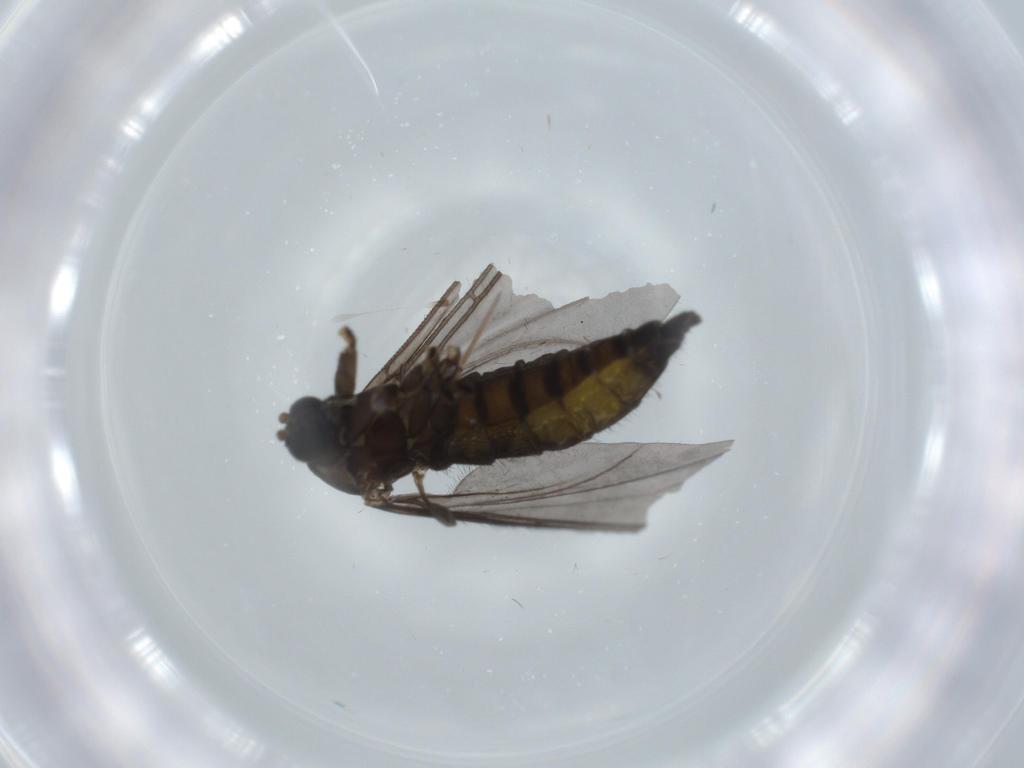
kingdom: Animalia
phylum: Arthropoda
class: Insecta
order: Diptera
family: Sciaridae
